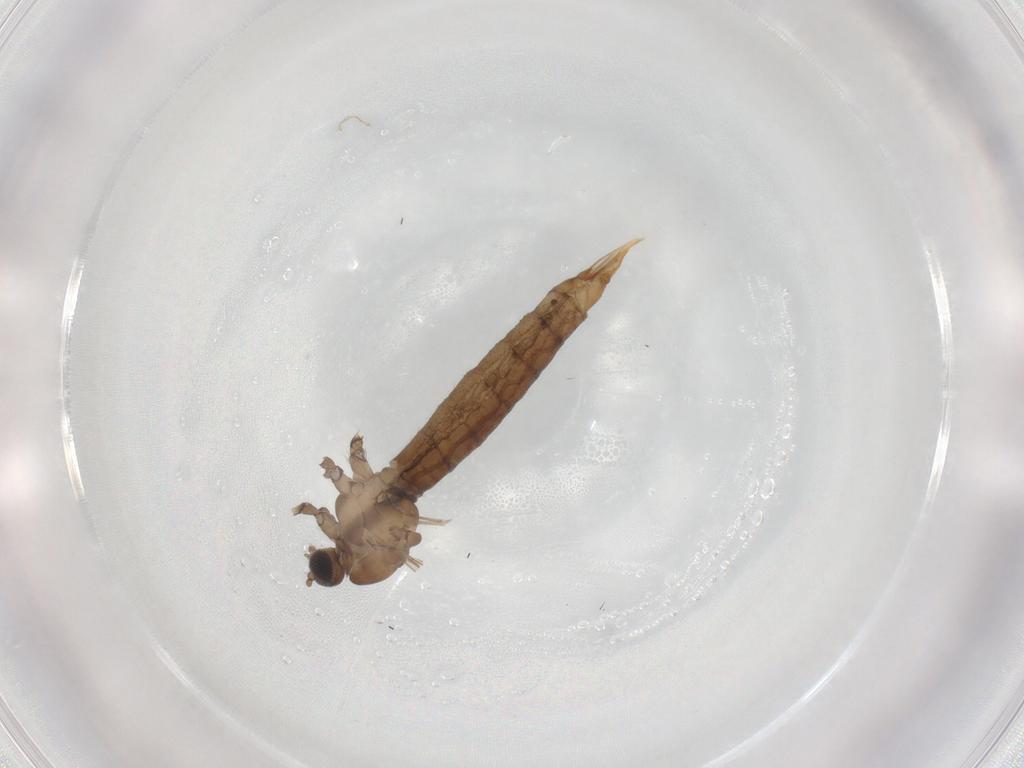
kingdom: Animalia
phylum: Arthropoda
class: Insecta
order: Diptera
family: Limoniidae
